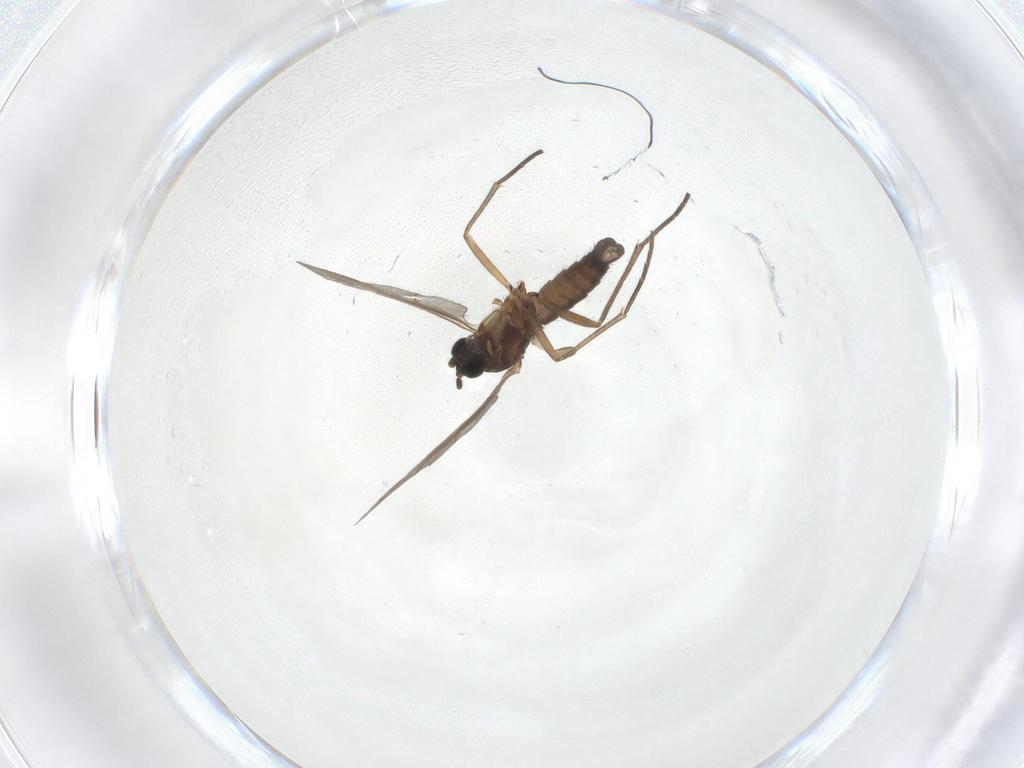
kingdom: Animalia
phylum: Arthropoda
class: Insecta
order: Diptera
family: Sciaridae
